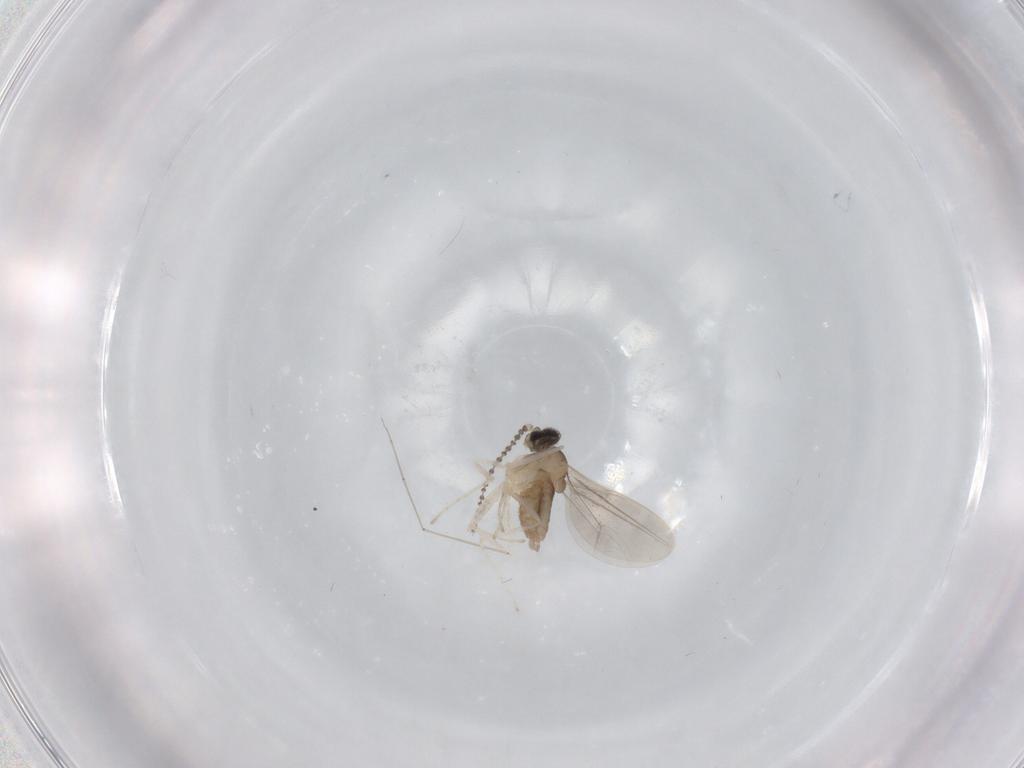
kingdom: Animalia
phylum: Arthropoda
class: Insecta
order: Diptera
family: Cecidomyiidae
